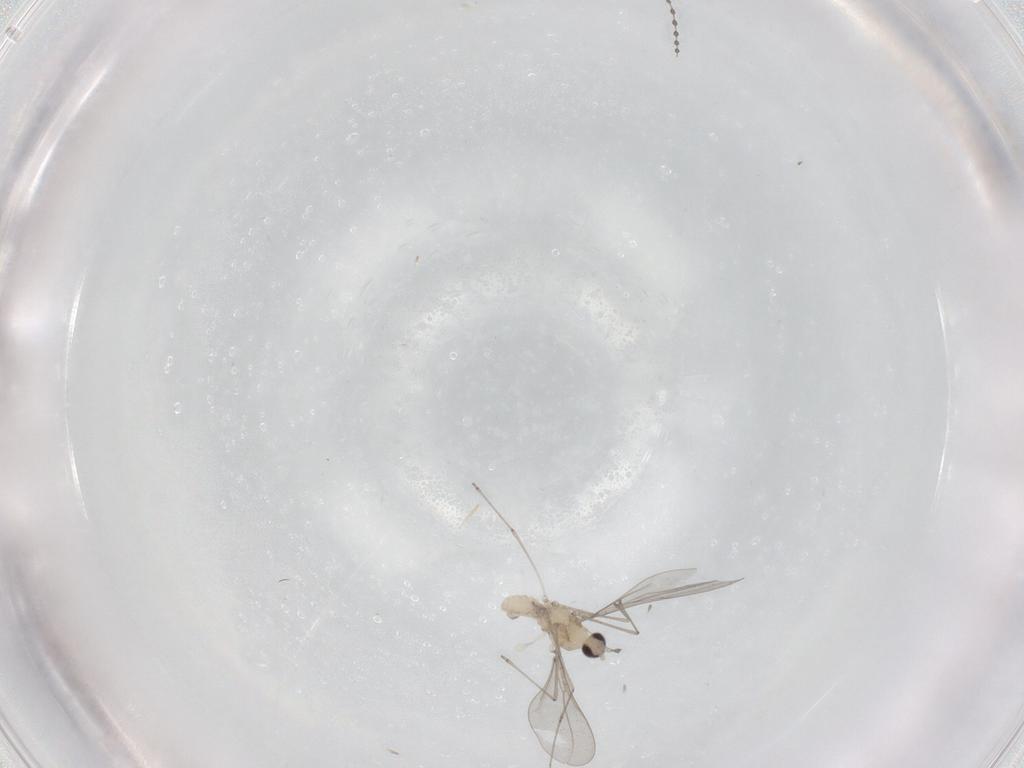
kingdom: Animalia
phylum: Arthropoda
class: Insecta
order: Diptera
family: Cecidomyiidae
